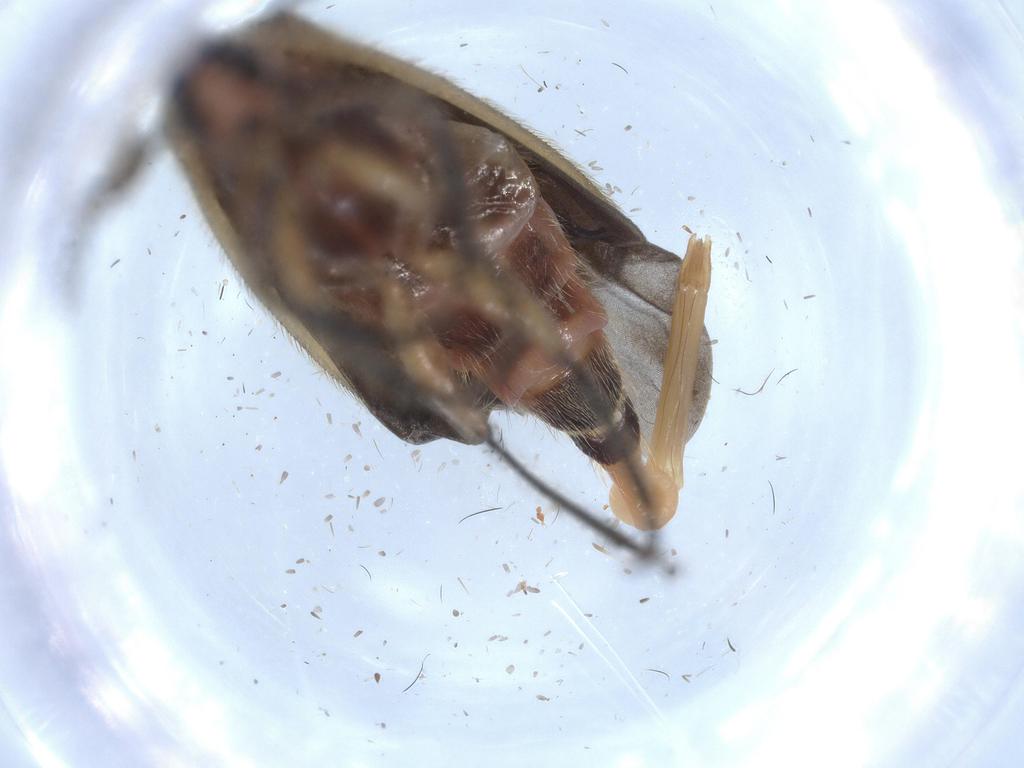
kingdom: Animalia
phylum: Arthropoda
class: Insecta
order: Coleoptera
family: Cleridae
